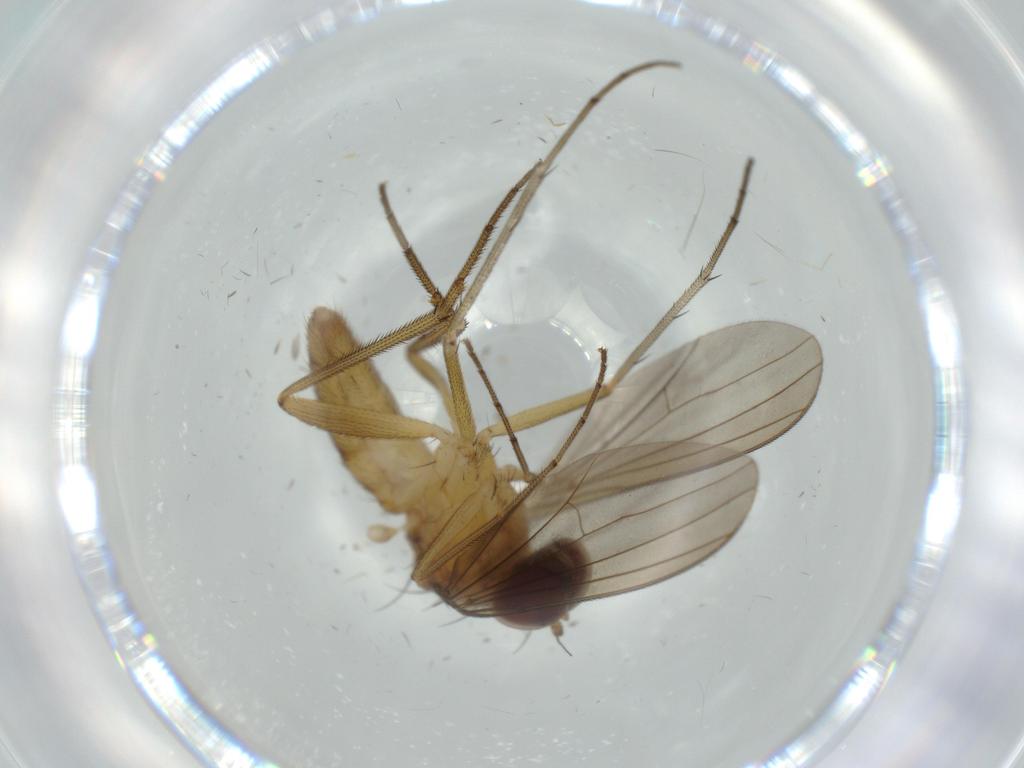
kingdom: Animalia
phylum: Arthropoda
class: Insecta
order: Diptera
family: Dolichopodidae
